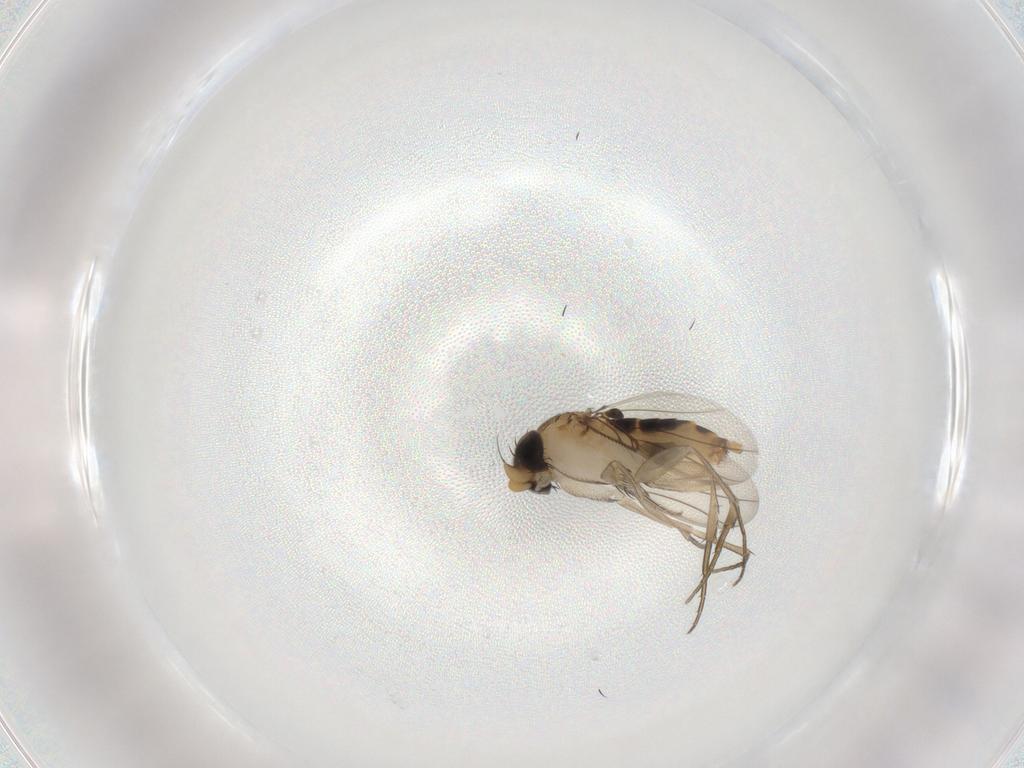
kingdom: Animalia
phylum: Arthropoda
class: Insecta
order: Diptera
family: Phoridae
